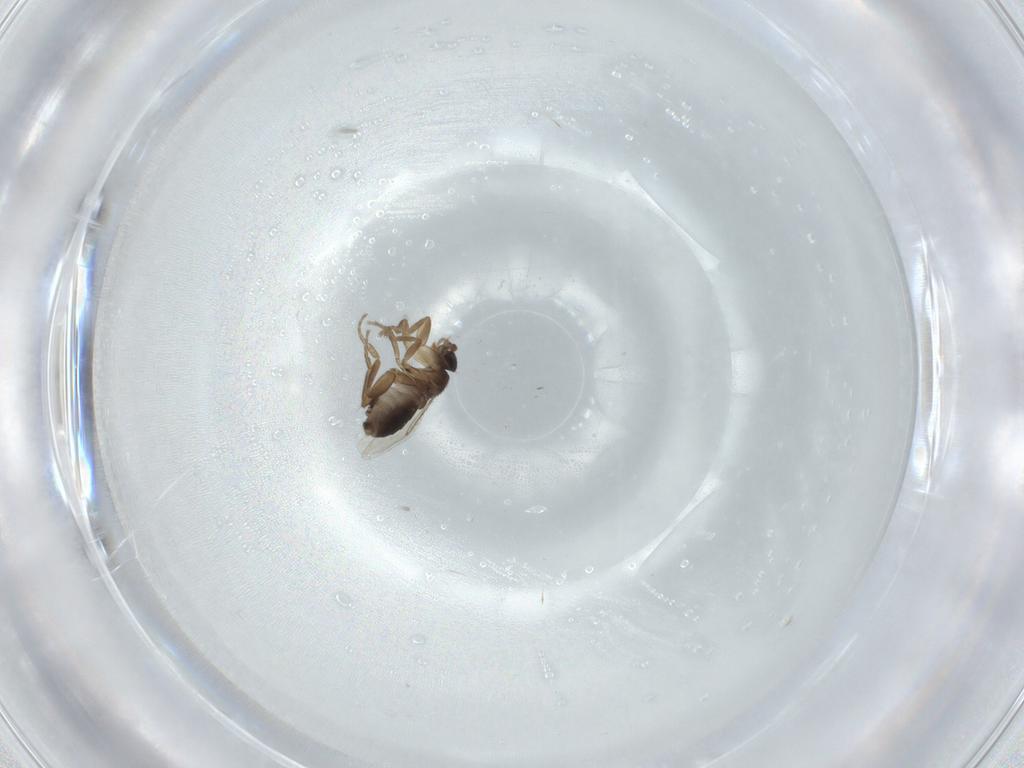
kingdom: Animalia
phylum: Arthropoda
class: Insecta
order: Diptera
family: Phoridae
